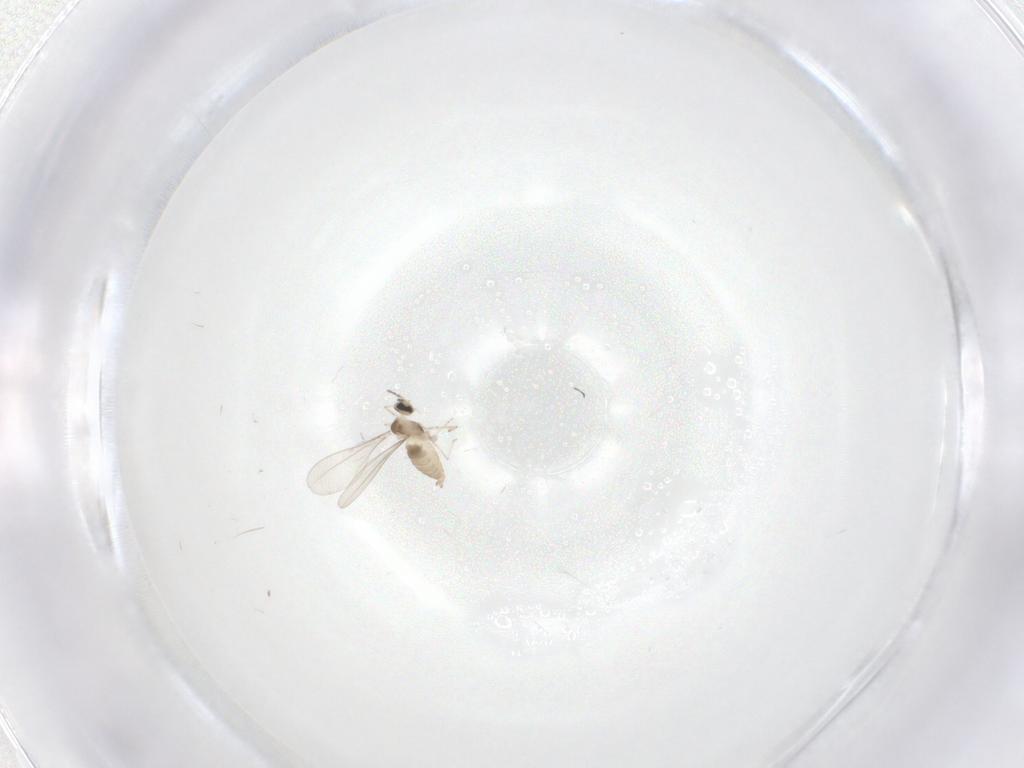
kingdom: Animalia
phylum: Arthropoda
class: Insecta
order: Diptera
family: Cecidomyiidae
